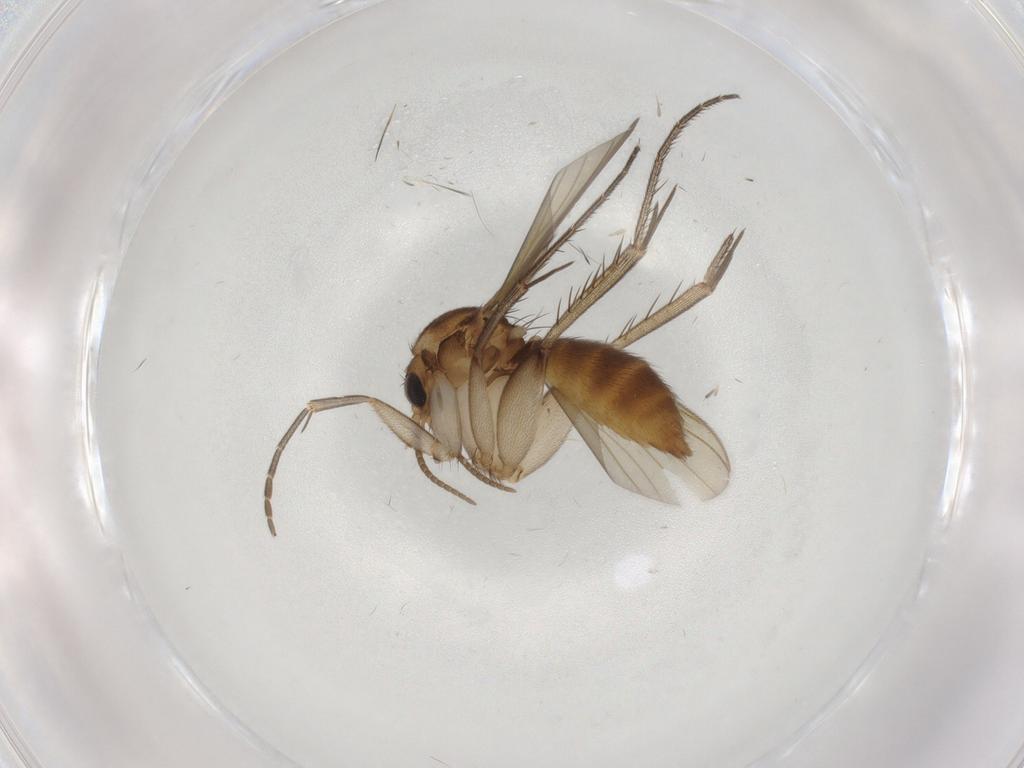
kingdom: Animalia
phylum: Arthropoda
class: Insecta
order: Diptera
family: Mycetophilidae
